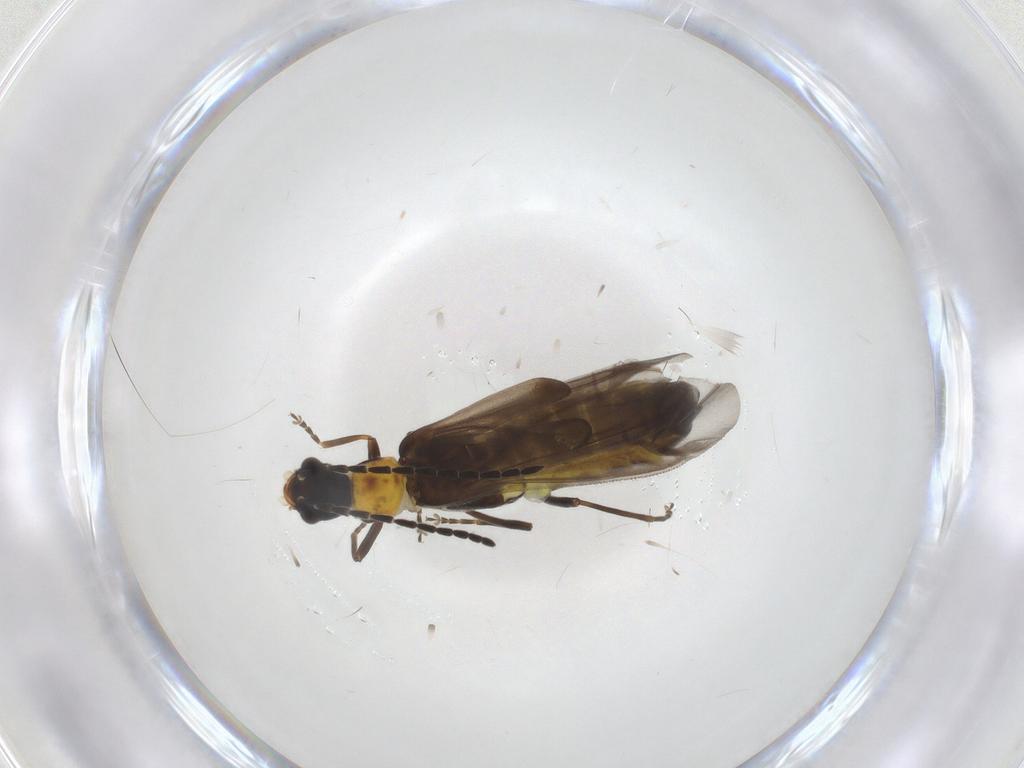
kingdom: Animalia
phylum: Arthropoda
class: Insecta
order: Coleoptera
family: Cantharidae
